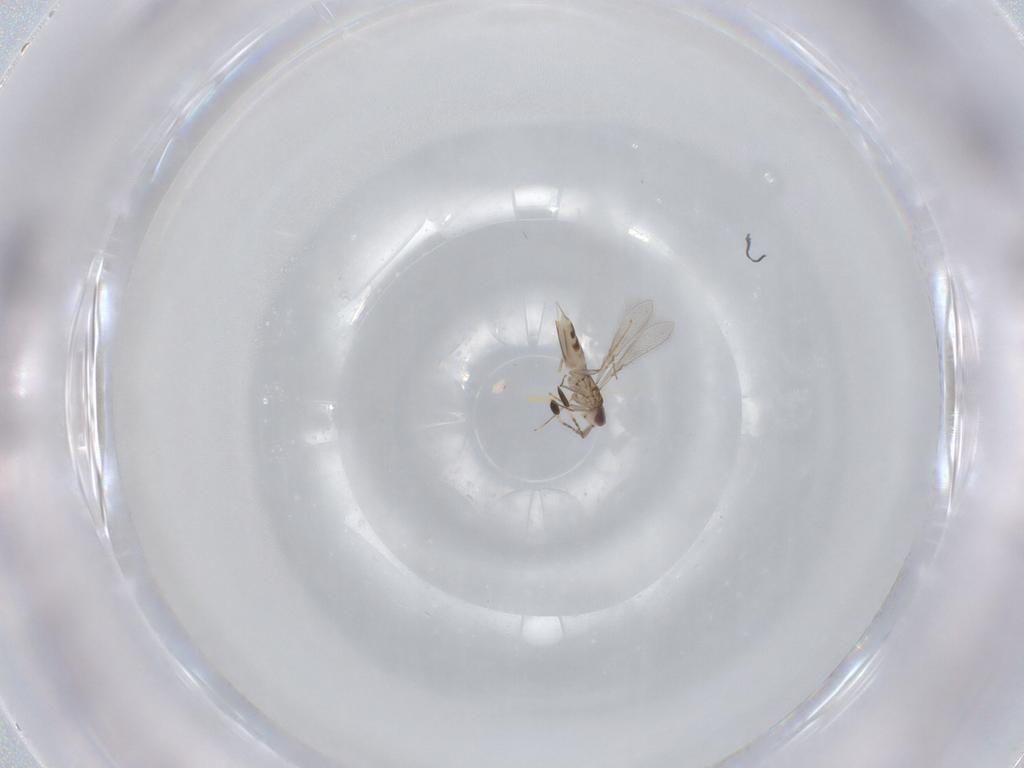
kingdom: Animalia
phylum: Arthropoda
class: Insecta
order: Hymenoptera
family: Mymaridae
